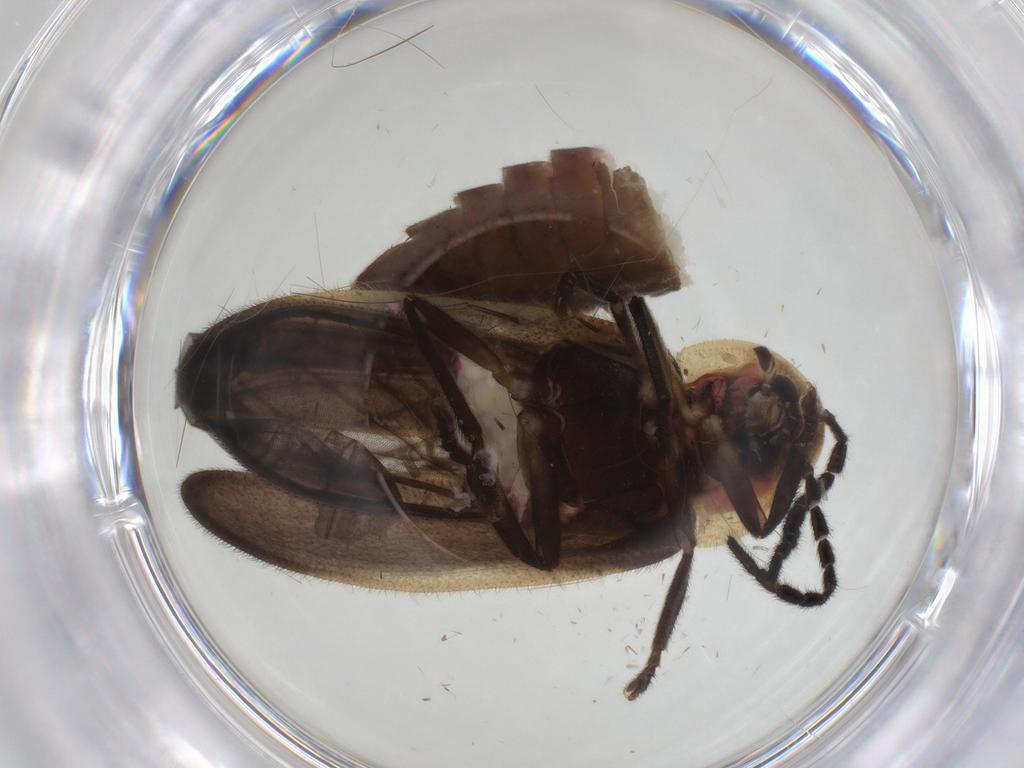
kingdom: Animalia
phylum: Arthropoda
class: Insecta
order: Coleoptera
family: Lampyridae
